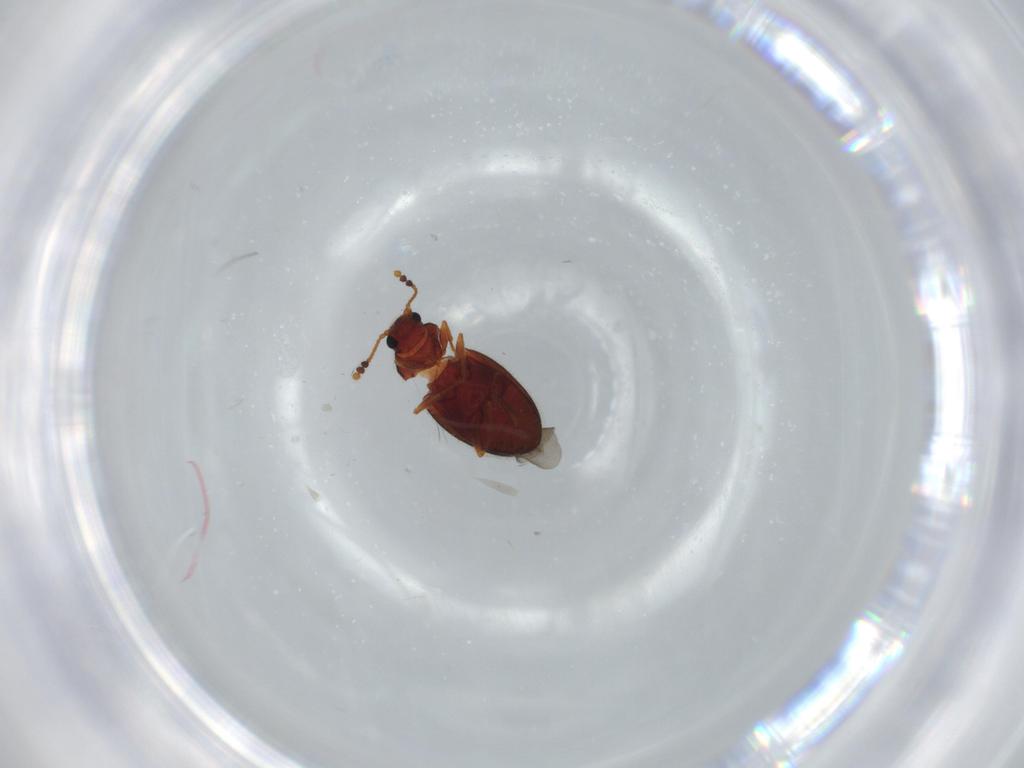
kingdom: Animalia
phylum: Arthropoda
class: Insecta
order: Coleoptera
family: Erotylidae
